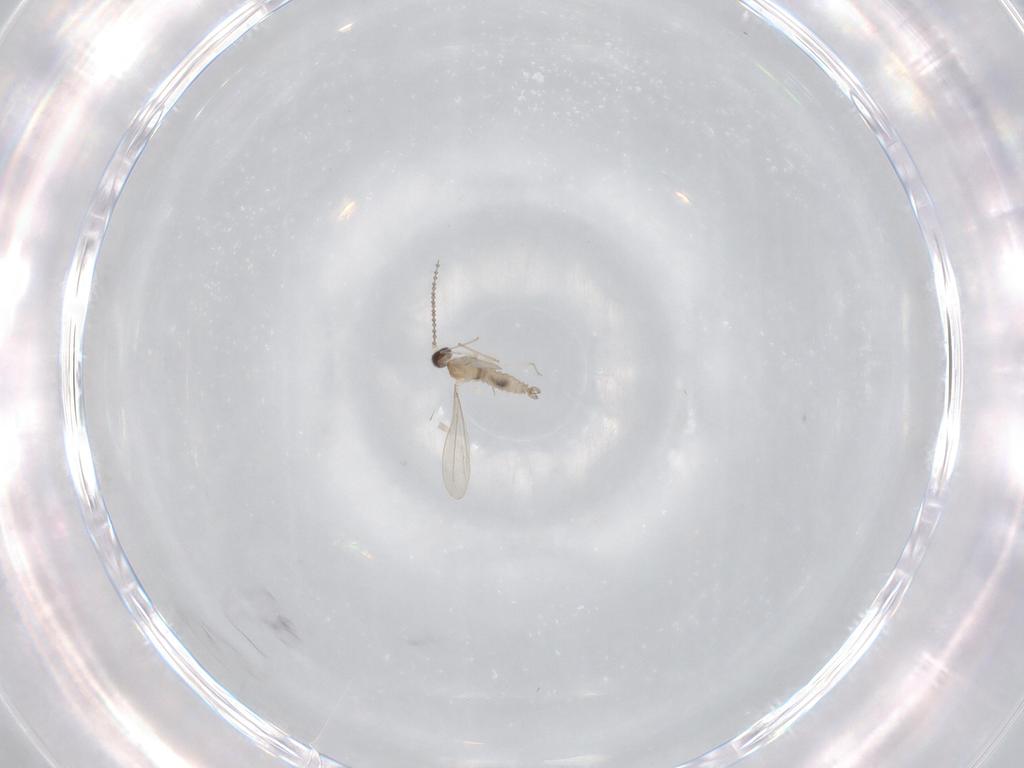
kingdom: Animalia
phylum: Arthropoda
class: Insecta
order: Diptera
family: Cecidomyiidae
